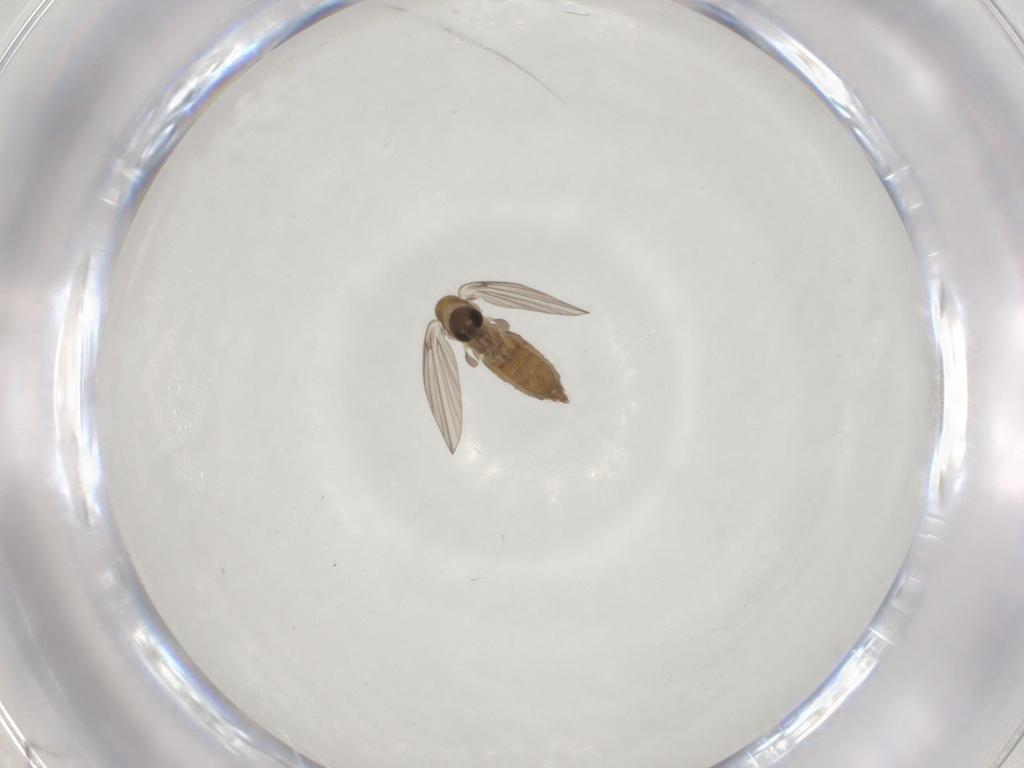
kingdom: Animalia
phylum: Arthropoda
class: Insecta
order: Diptera
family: Psychodidae
